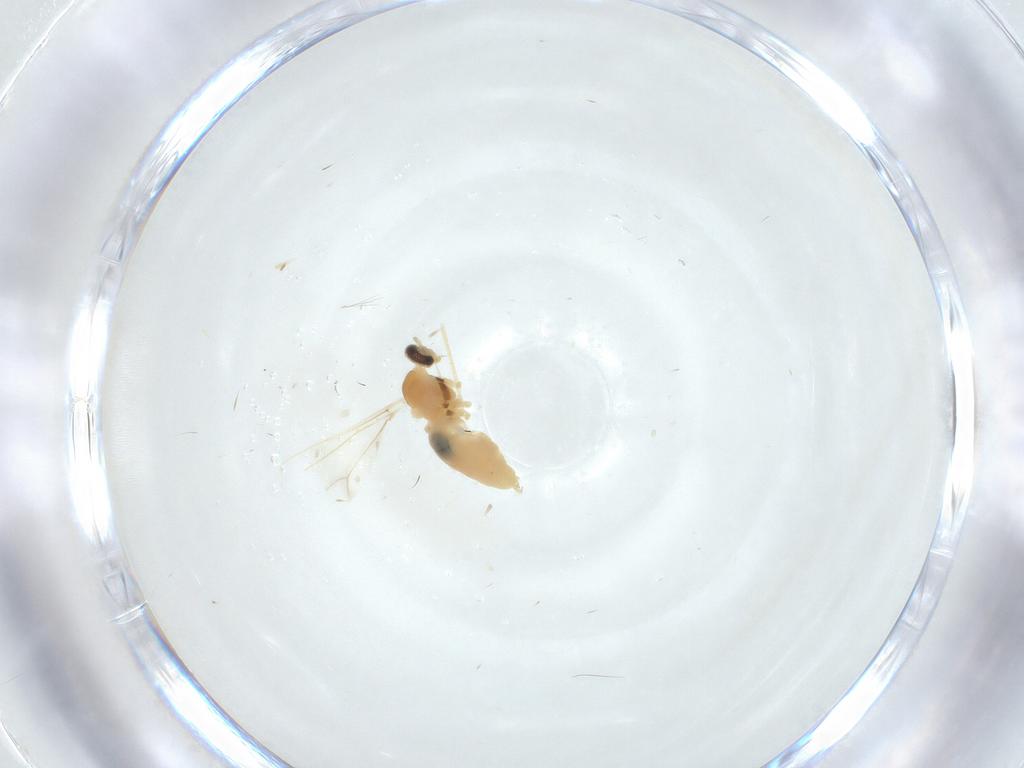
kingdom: Animalia
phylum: Arthropoda
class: Insecta
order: Diptera
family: Cecidomyiidae
